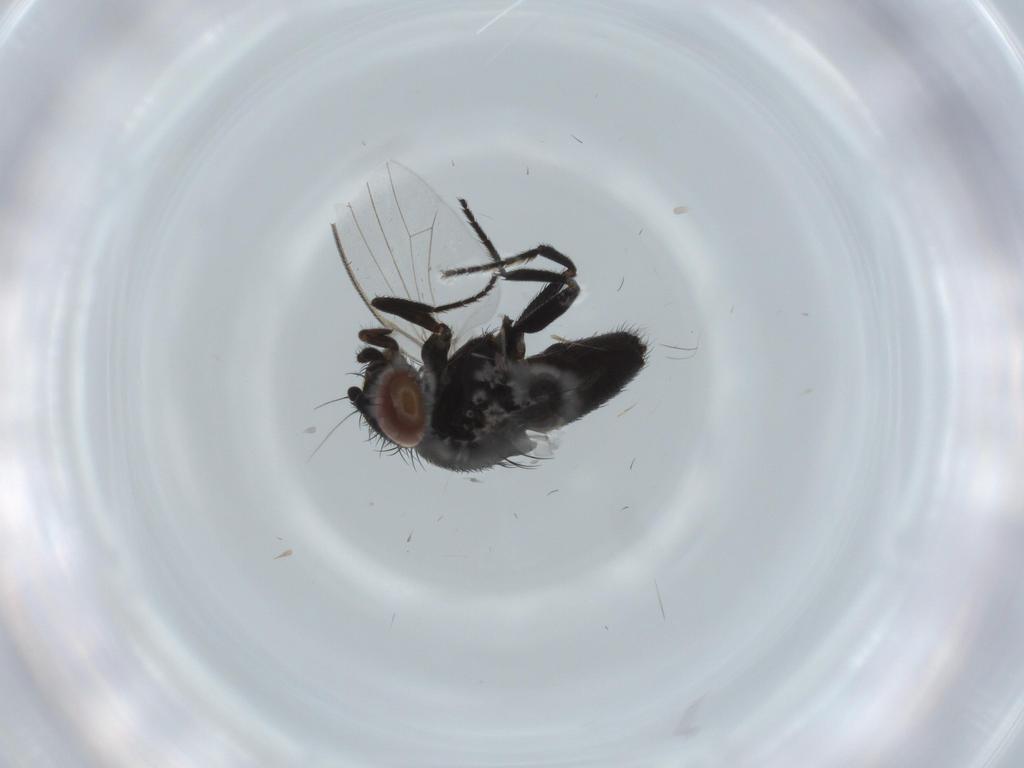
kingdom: Animalia
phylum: Arthropoda
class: Insecta
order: Diptera
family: Milichiidae
